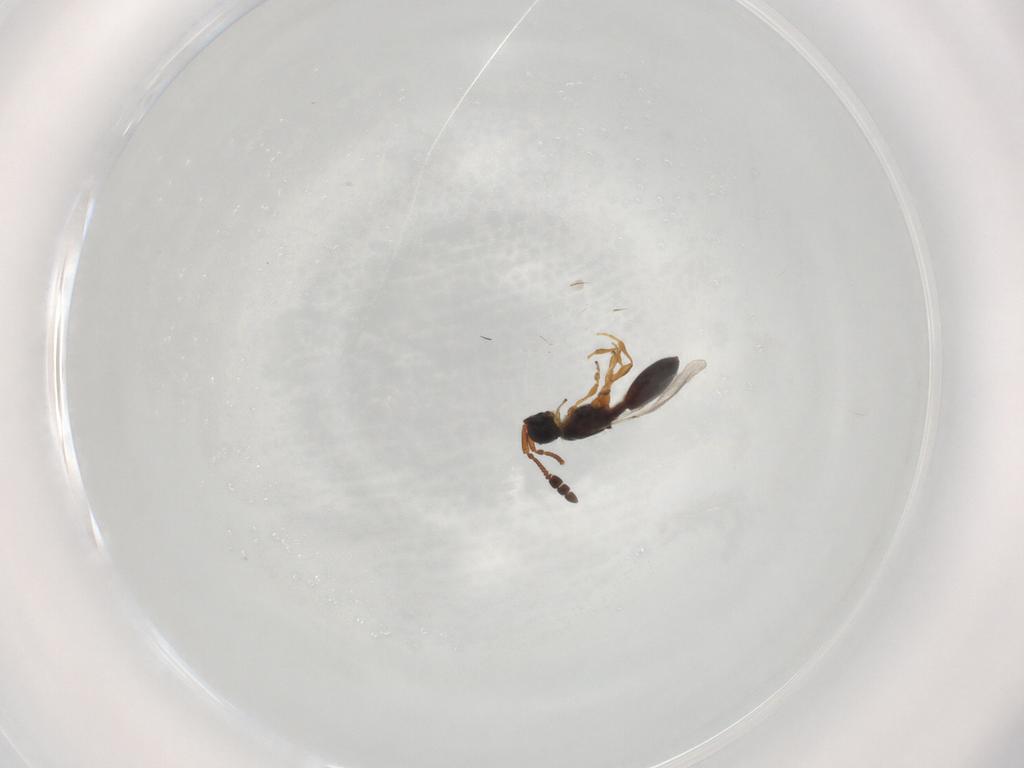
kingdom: Animalia
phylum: Arthropoda
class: Insecta
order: Hymenoptera
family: Diapriidae
